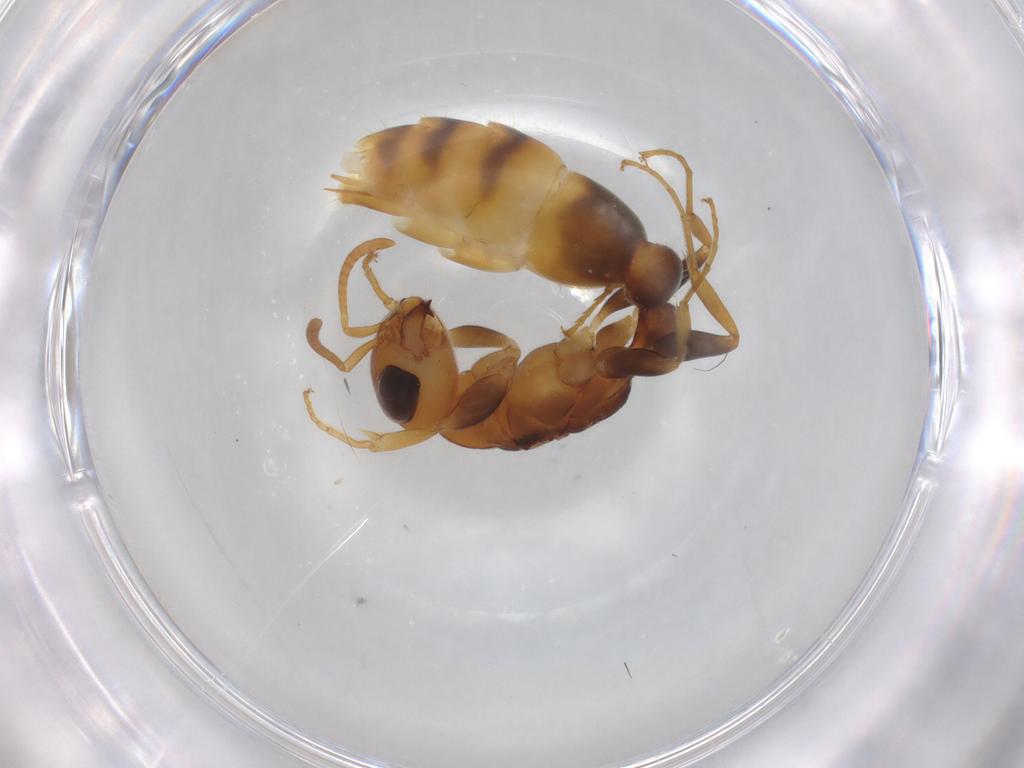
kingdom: Animalia
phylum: Arthropoda
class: Insecta
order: Hymenoptera
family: Formicidae
